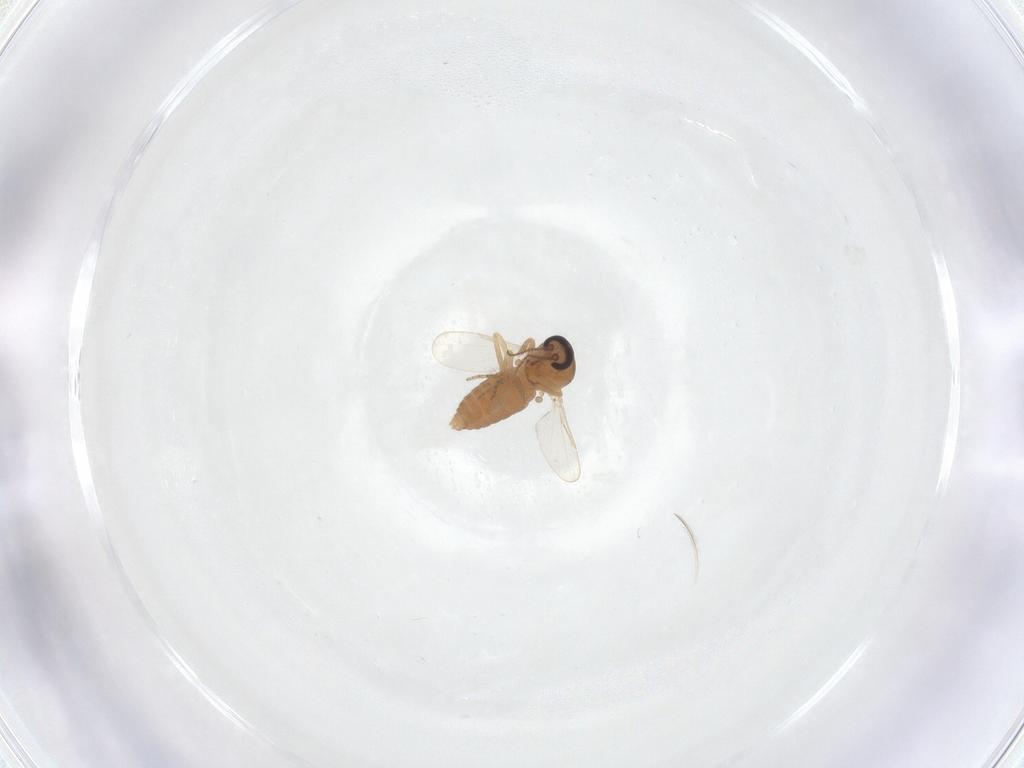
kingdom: Animalia
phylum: Arthropoda
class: Insecta
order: Diptera
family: Ceratopogonidae
